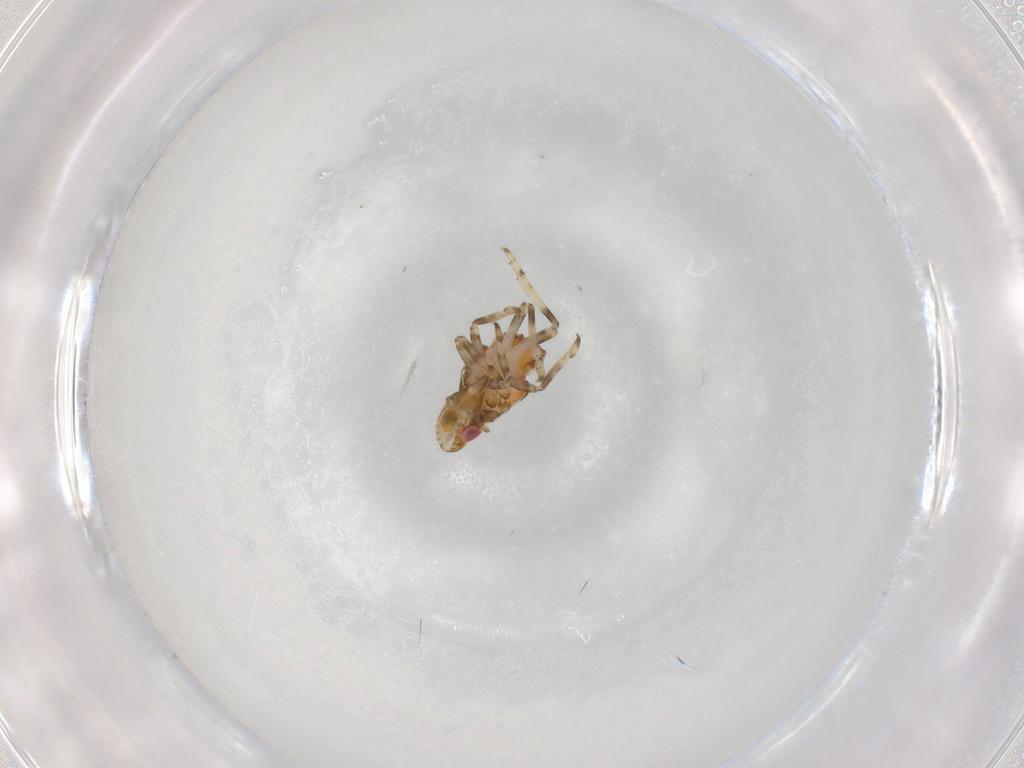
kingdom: Animalia
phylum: Arthropoda
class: Insecta
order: Hemiptera
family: Tropiduchidae
